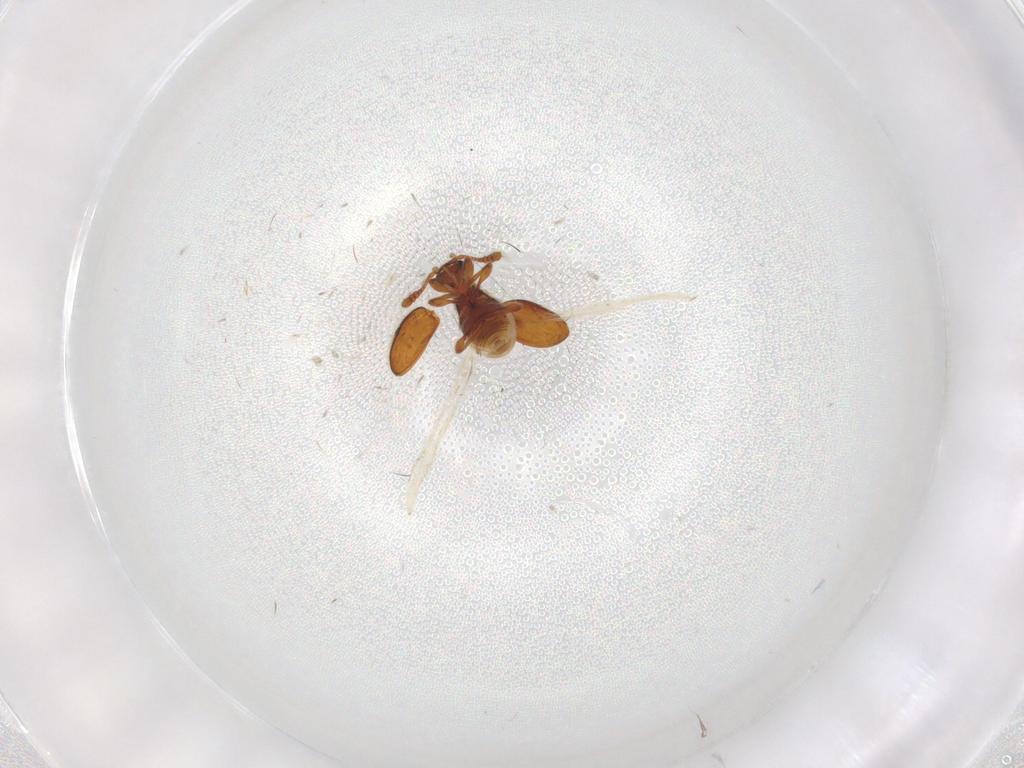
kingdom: Animalia
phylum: Arthropoda
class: Insecta
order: Coleoptera
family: Staphylinidae
